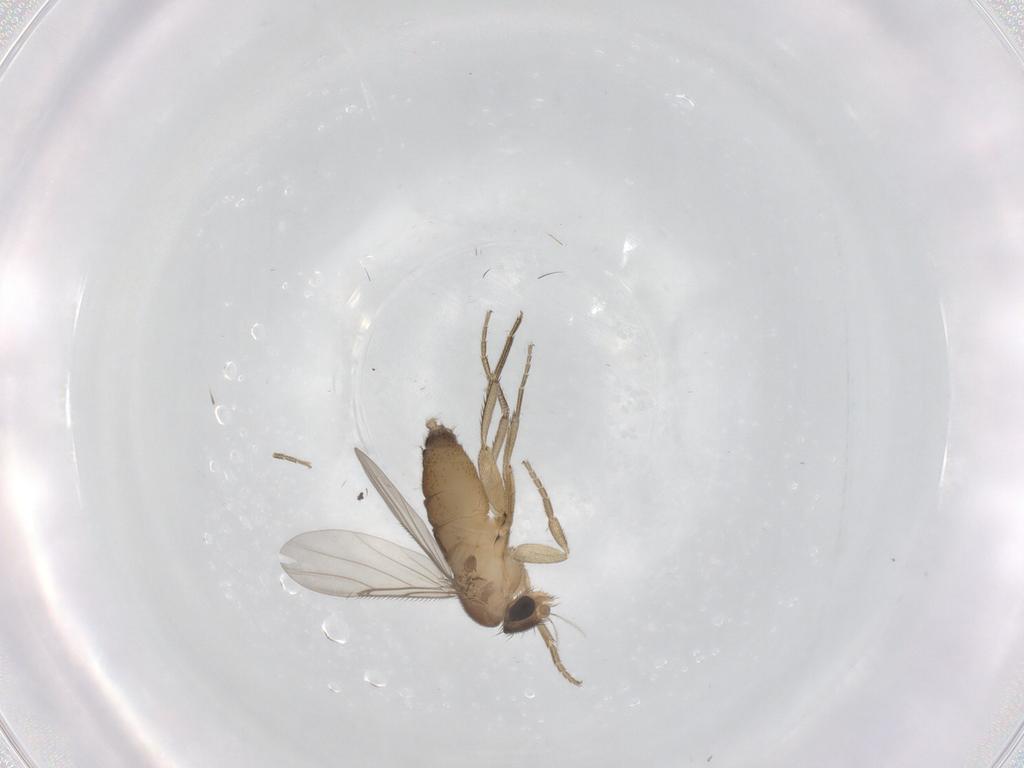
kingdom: Animalia
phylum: Arthropoda
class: Insecta
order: Diptera
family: Phoridae
